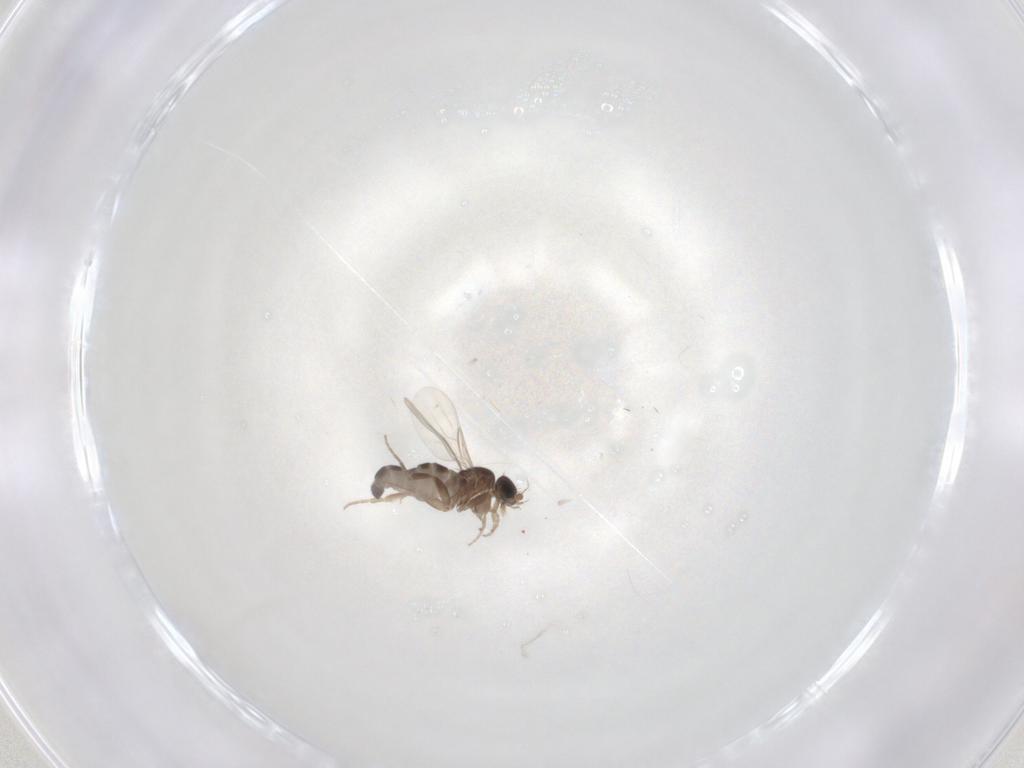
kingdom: Animalia
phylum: Arthropoda
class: Insecta
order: Diptera
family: Phoridae
